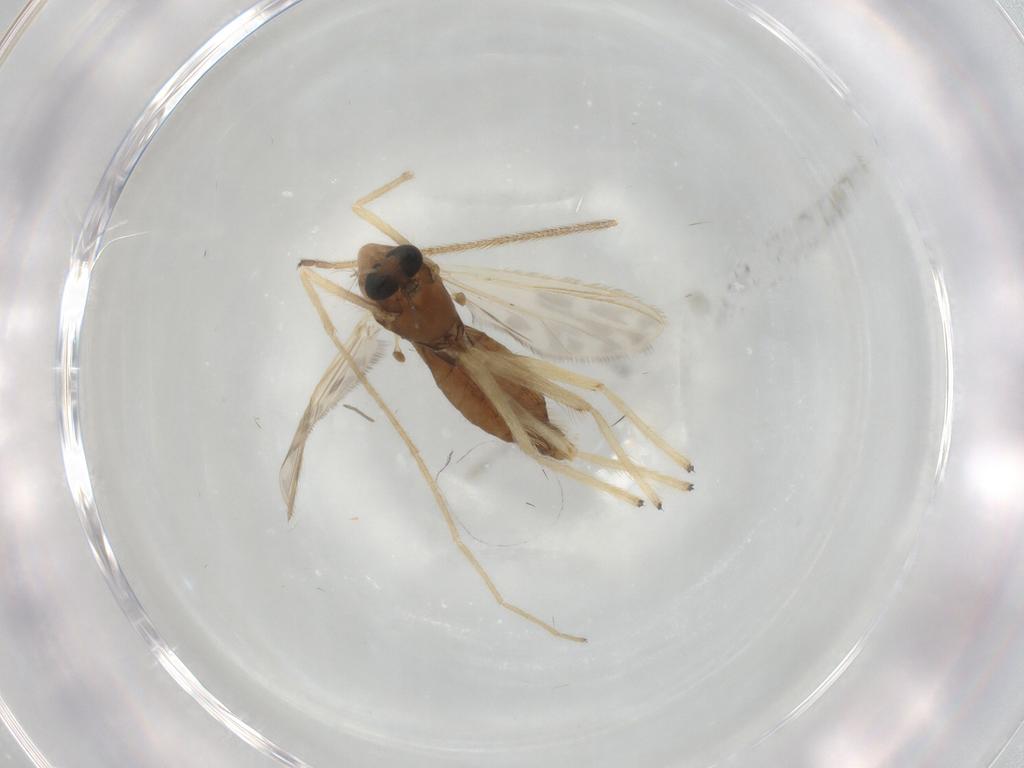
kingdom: Animalia
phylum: Arthropoda
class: Insecta
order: Diptera
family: Chironomidae
